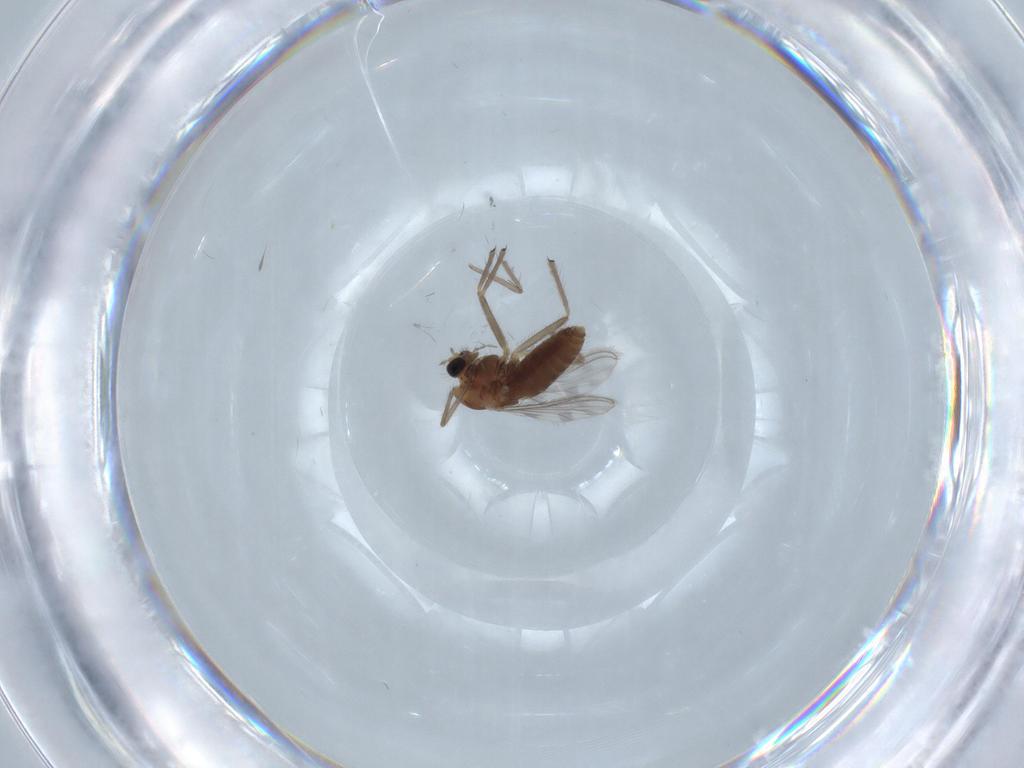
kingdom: Animalia
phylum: Arthropoda
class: Insecta
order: Diptera
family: Chironomidae
